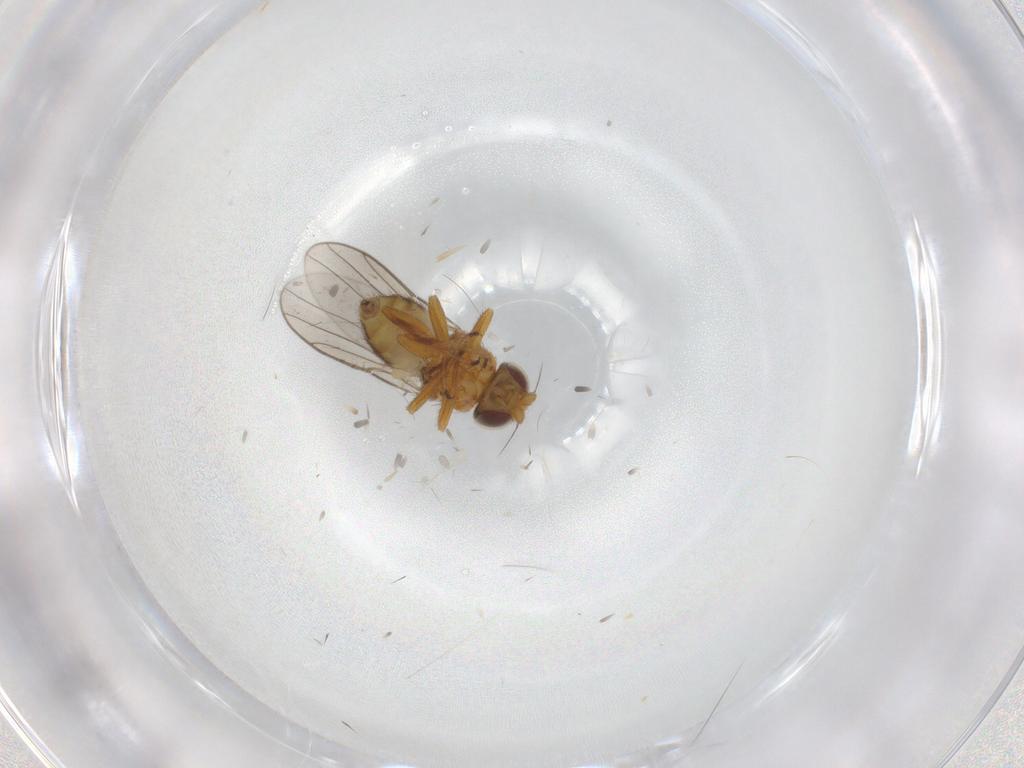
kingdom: Animalia
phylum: Arthropoda
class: Insecta
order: Diptera
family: Chloropidae
